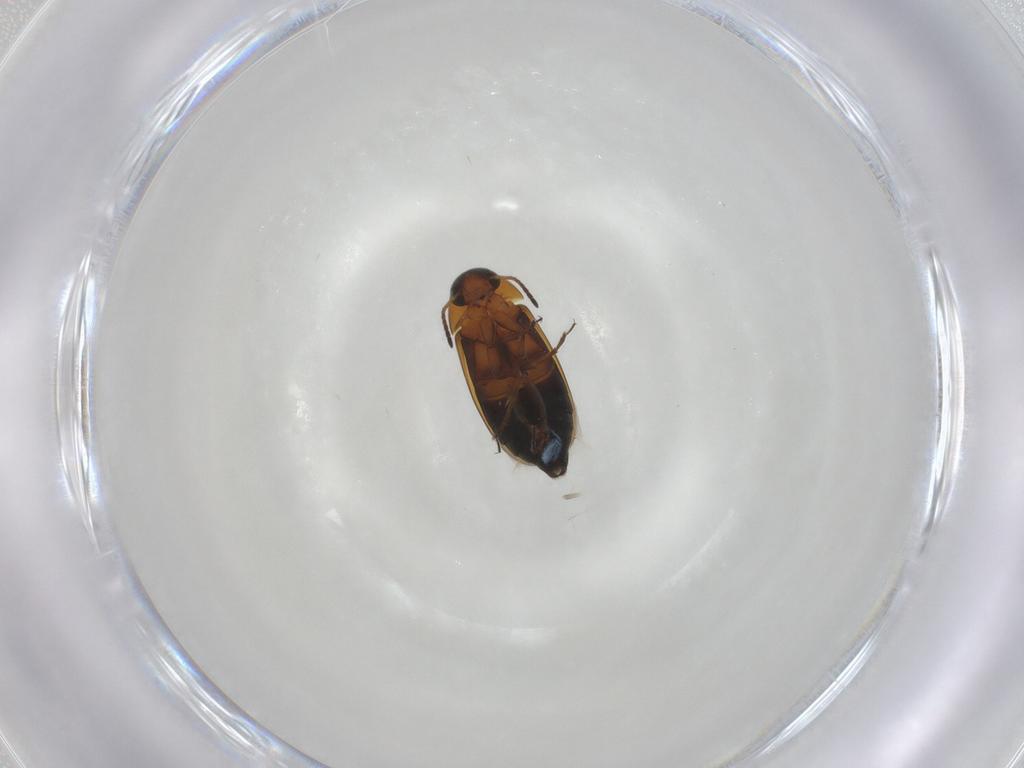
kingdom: Animalia
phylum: Arthropoda
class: Insecta
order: Coleoptera
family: Scraptiidae
